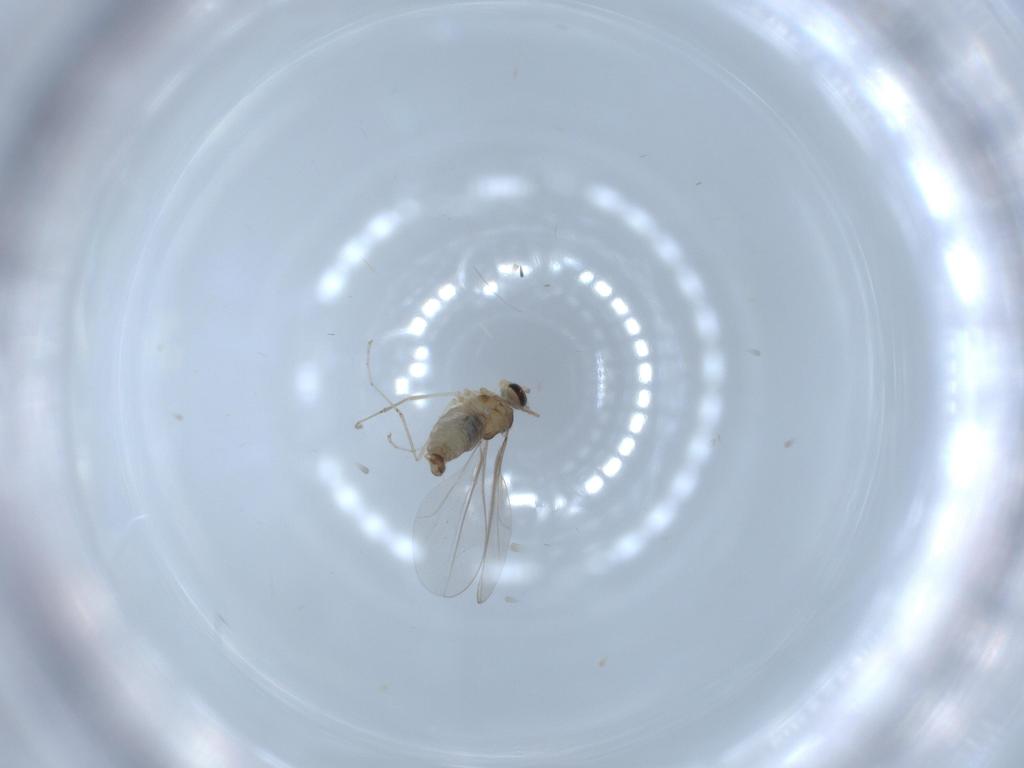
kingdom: Animalia
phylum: Arthropoda
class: Insecta
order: Diptera
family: Cecidomyiidae
